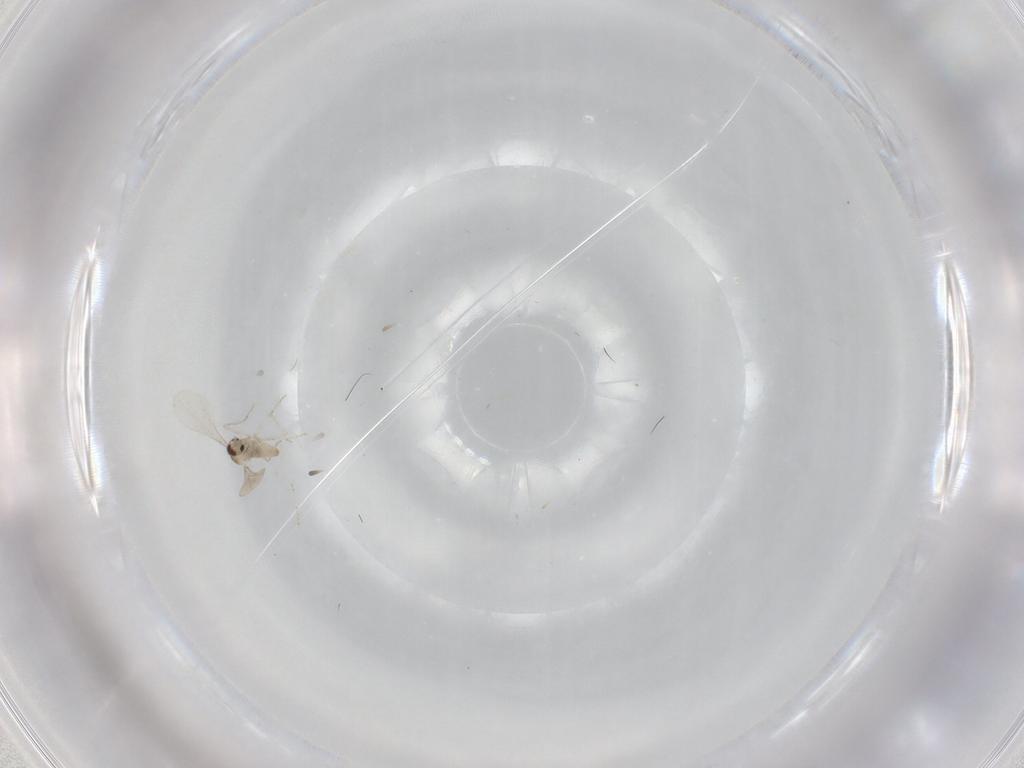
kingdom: Animalia
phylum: Arthropoda
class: Insecta
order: Diptera
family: Cecidomyiidae
